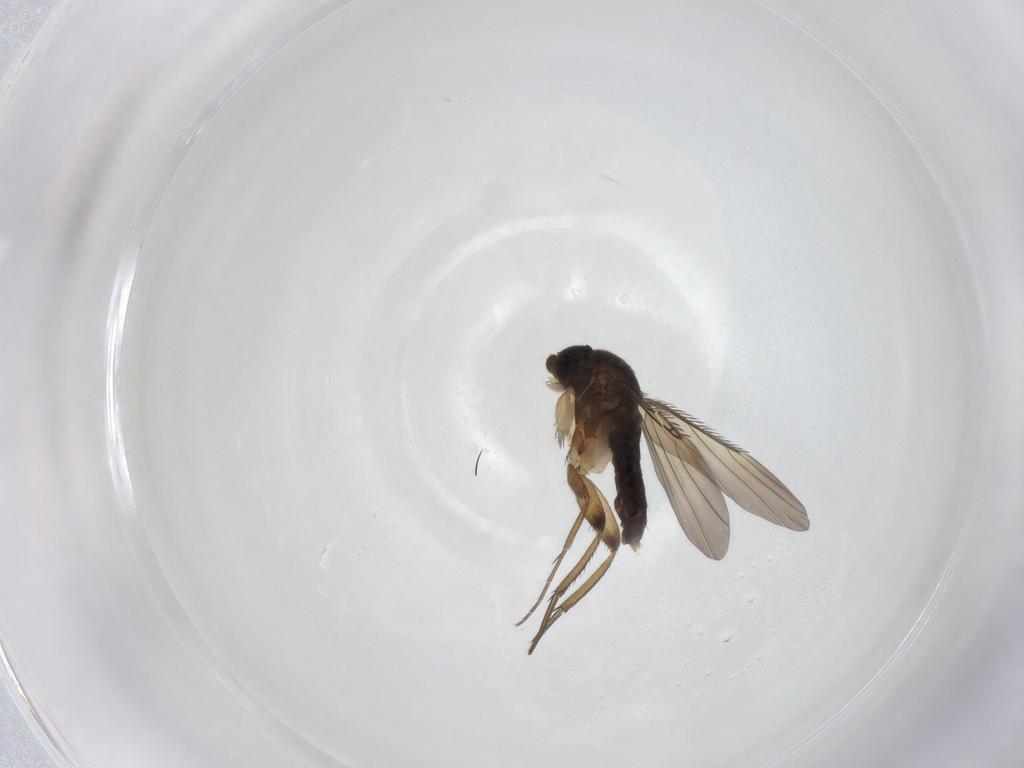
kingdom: Animalia
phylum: Arthropoda
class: Insecta
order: Diptera
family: Phoridae
